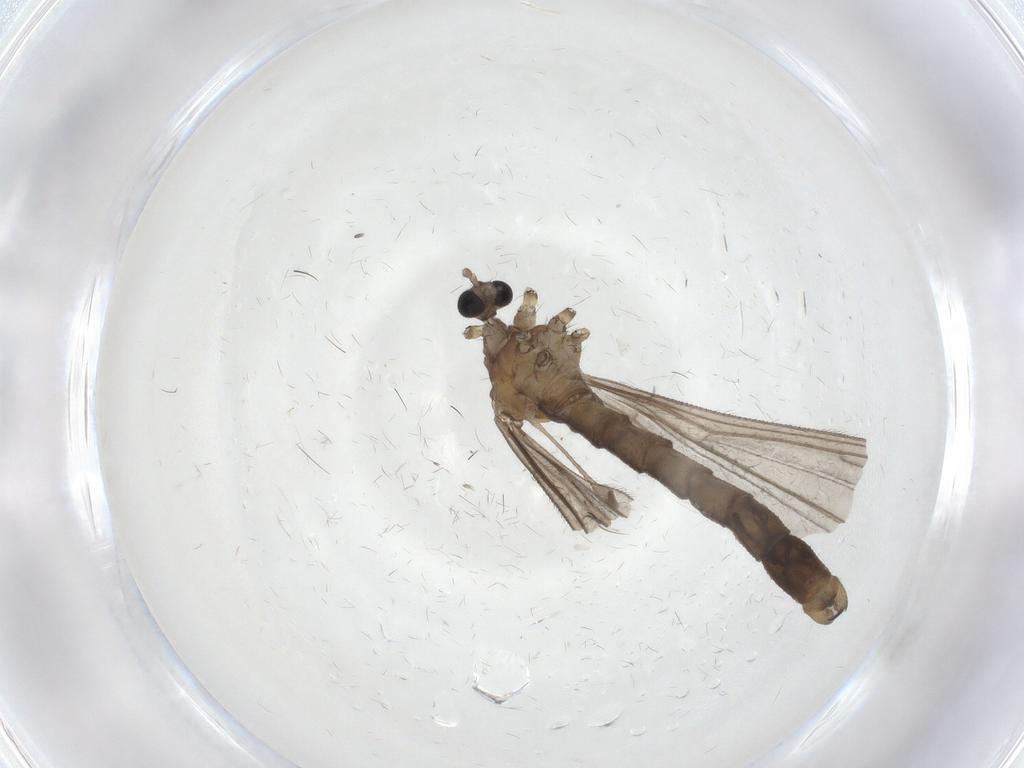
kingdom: Animalia
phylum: Arthropoda
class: Insecta
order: Diptera
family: Limoniidae
